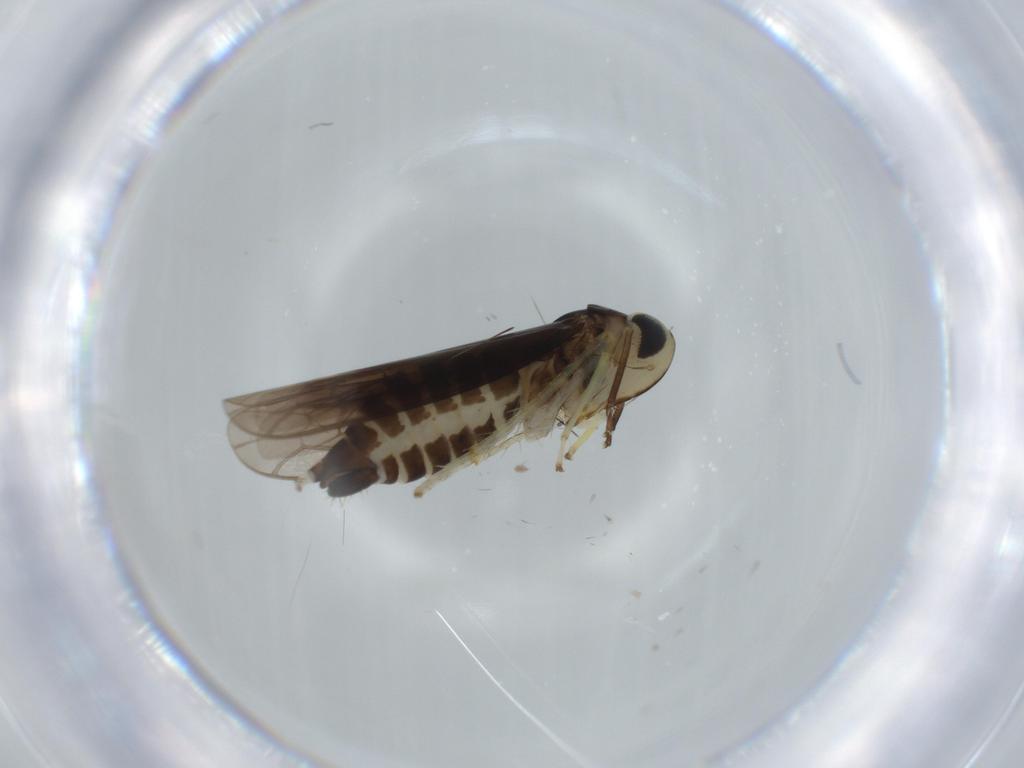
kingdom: Animalia
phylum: Arthropoda
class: Insecta
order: Hemiptera
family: Cicadellidae
